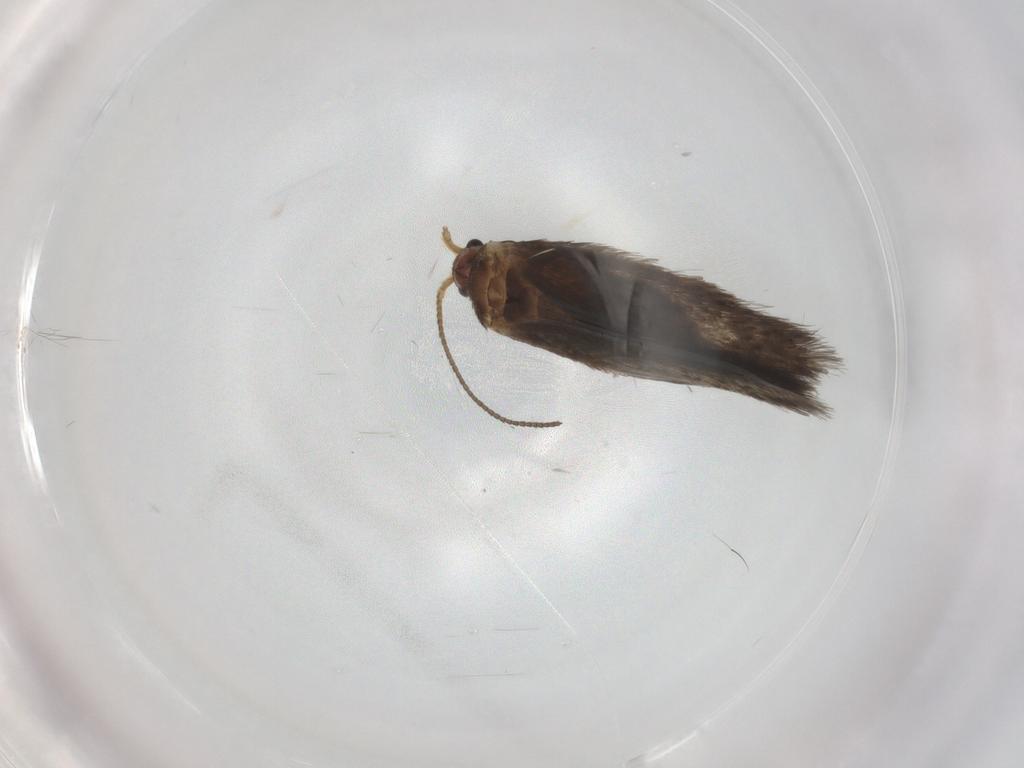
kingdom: Animalia
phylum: Arthropoda
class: Insecta
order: Lepidoptera
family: Nepticulidae
